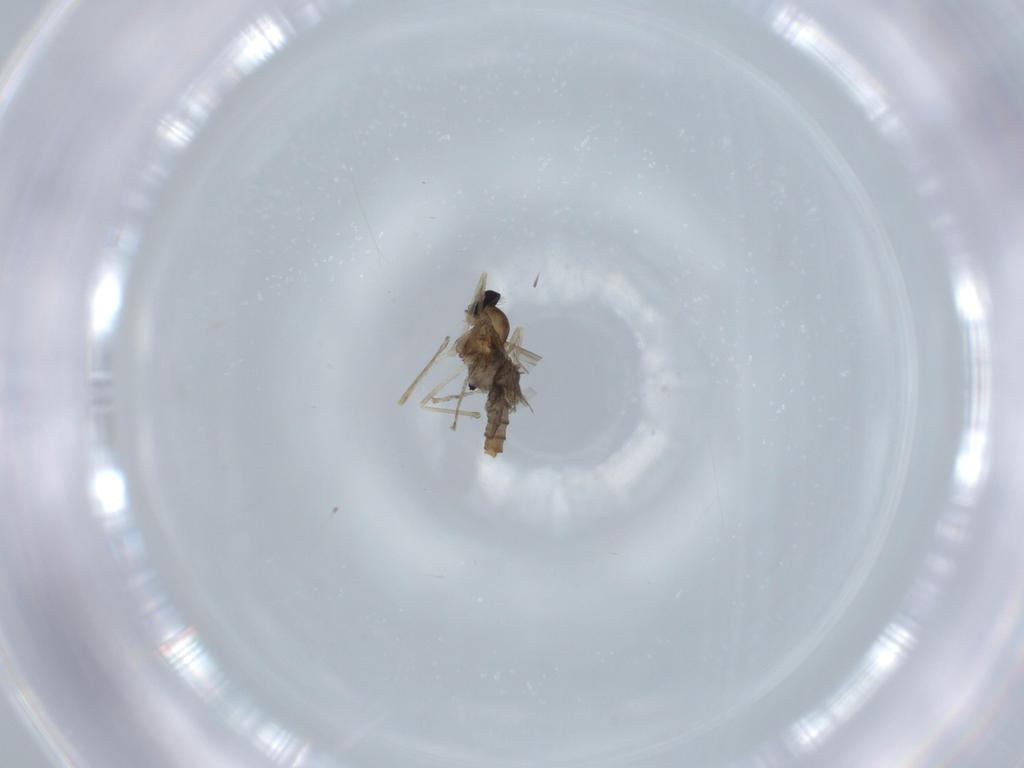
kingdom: Animalia
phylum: Arthropoda
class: Insecta
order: Diptera
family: Cecidomyiidae
